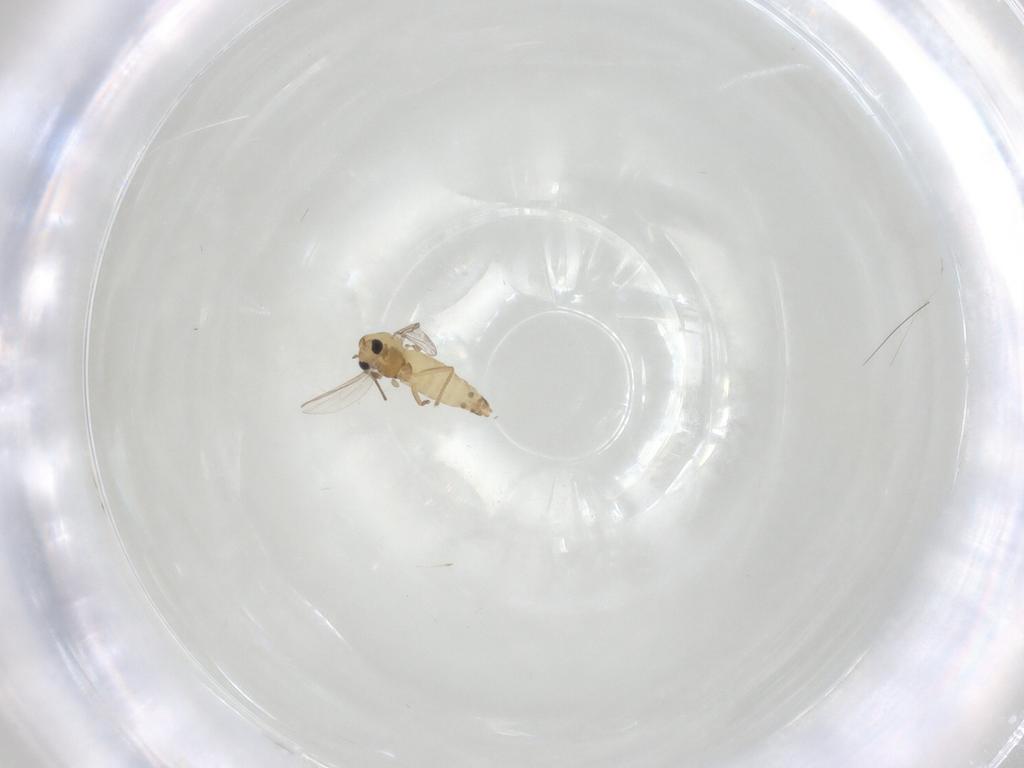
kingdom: Animalia
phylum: Arthropoda
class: Insecta
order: Diptera
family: Chironomidae
